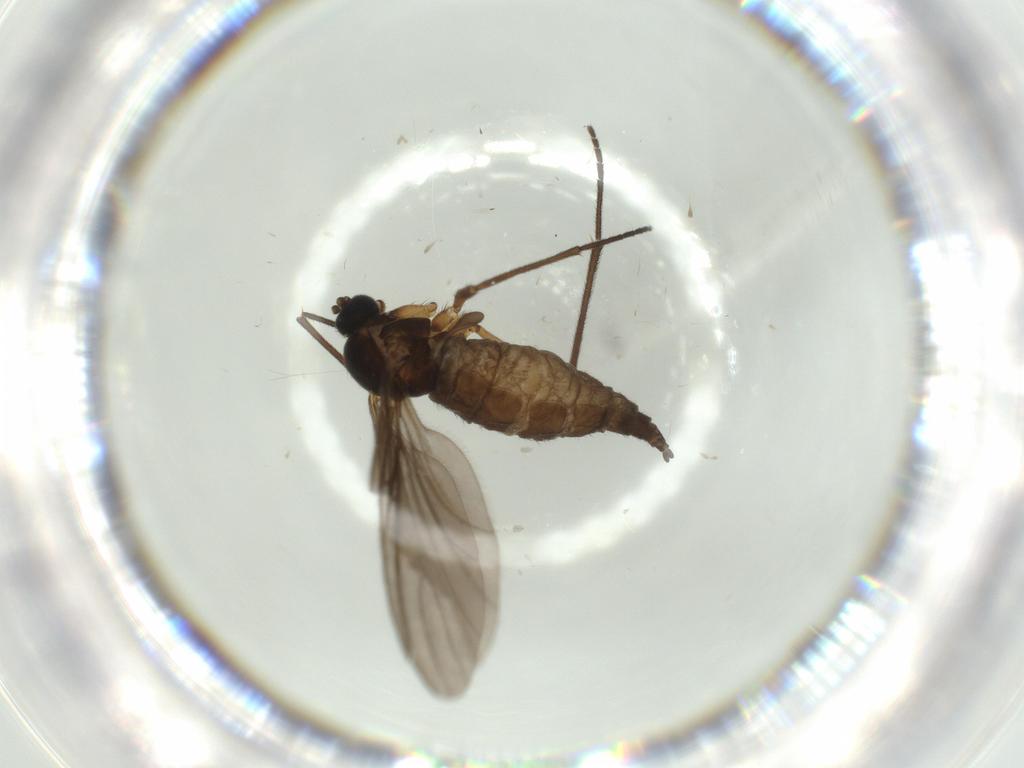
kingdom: Animalia
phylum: Arthropoda
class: Insecta
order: Diptera
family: Sciaridae
